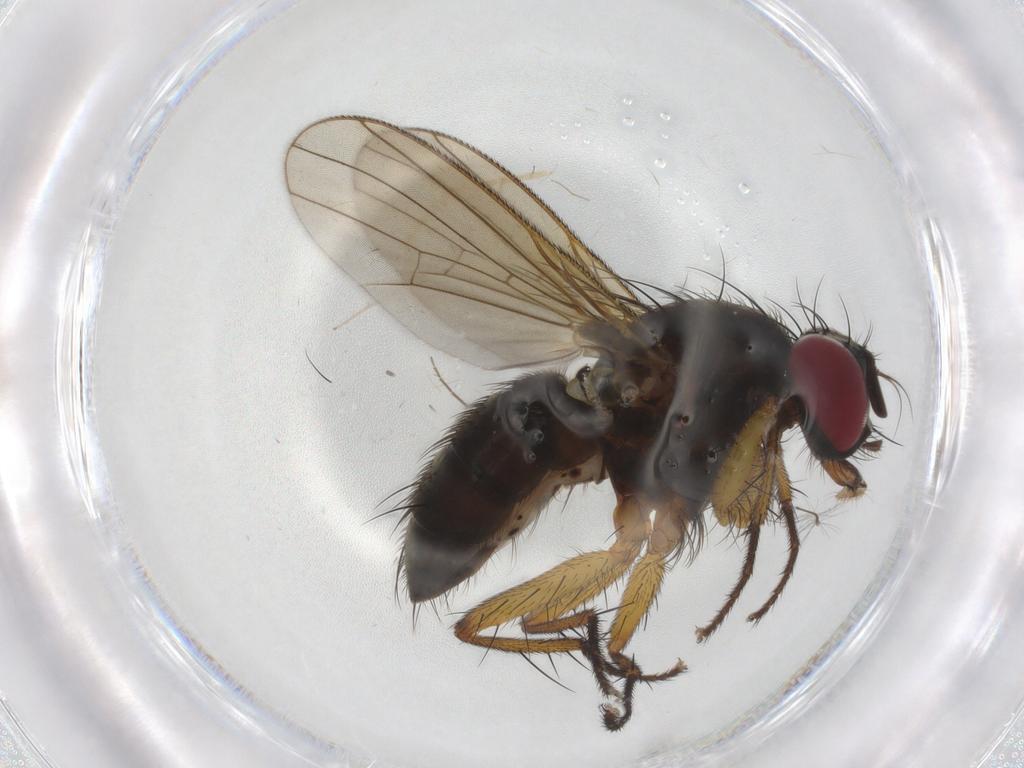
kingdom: Animalia
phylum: Arthropoda
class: Insecta
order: Diptera
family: Muscidae
